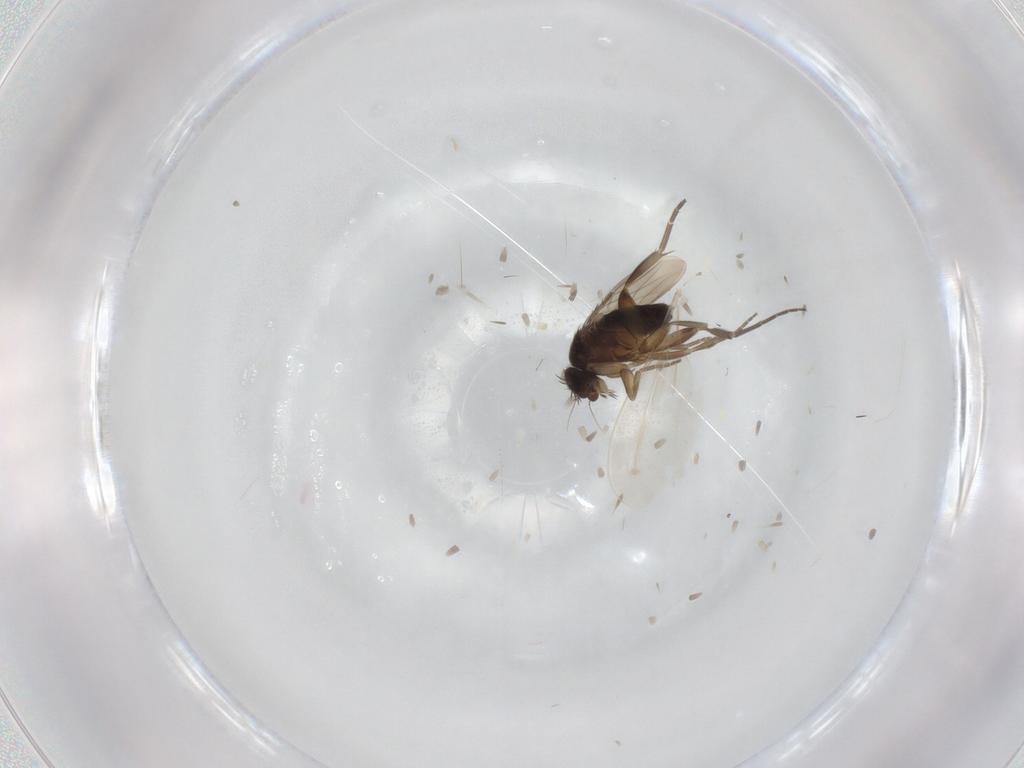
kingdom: Animalia
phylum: Arthropoda
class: Insecta
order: Diptera
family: Cecidomyiidae
